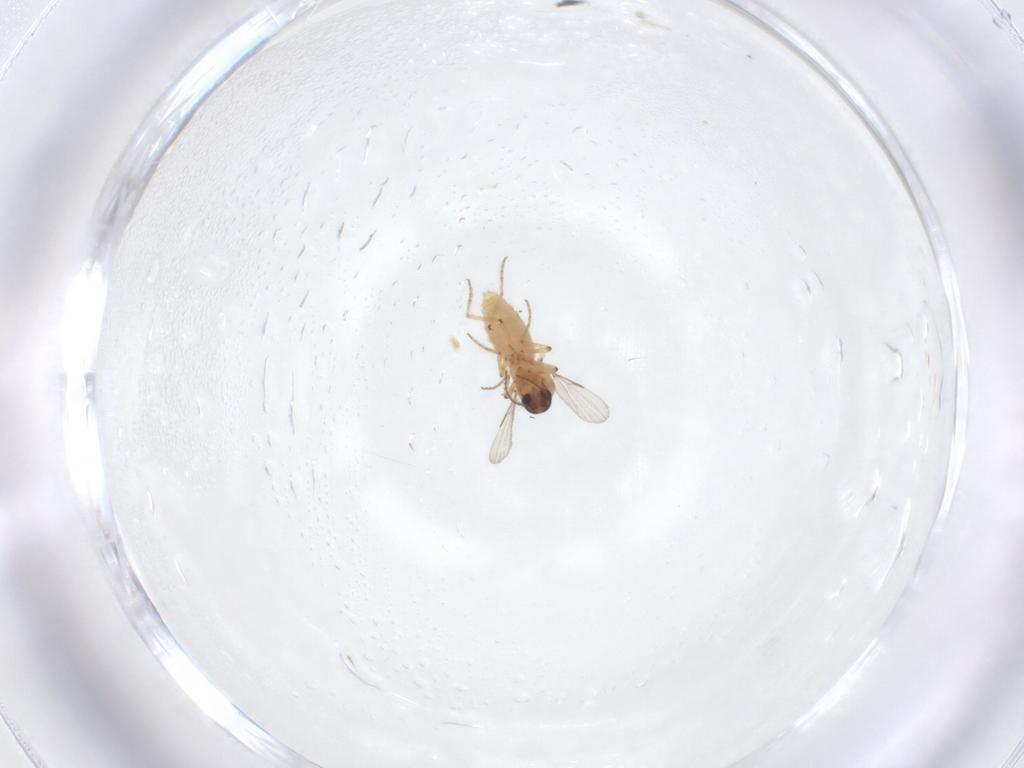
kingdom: Animalia
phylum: Arthropoda
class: Insecta
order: Diptera
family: Ceratopogonidae
